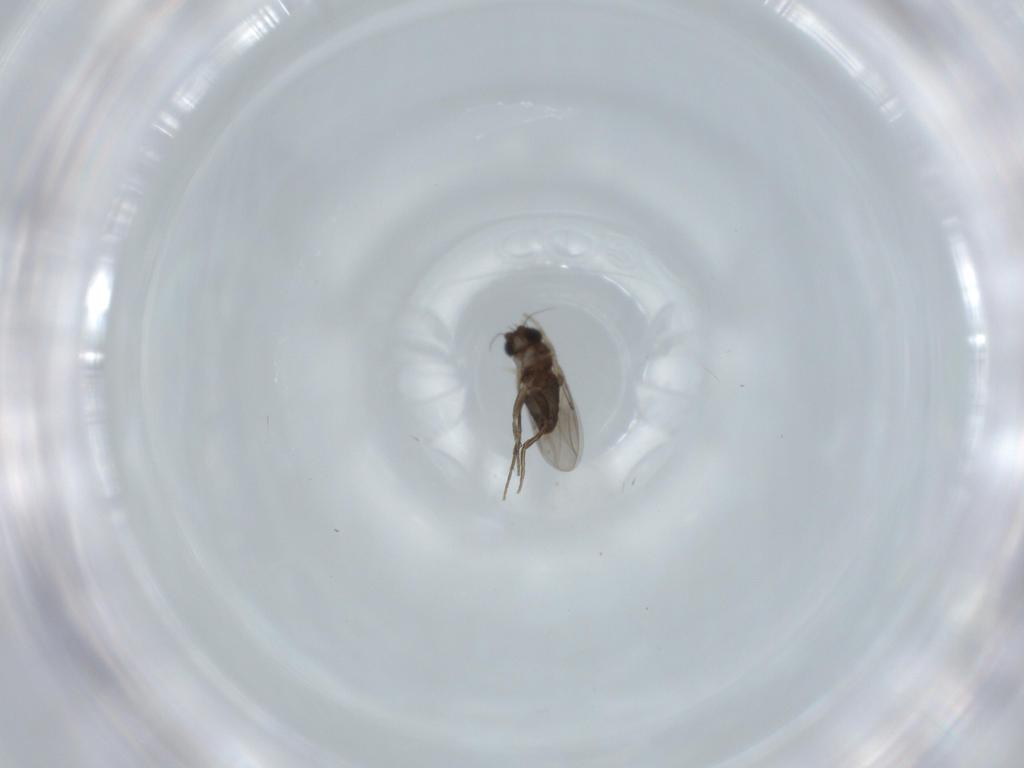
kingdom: Animalia
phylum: Arthropoda
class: Insecta
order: Diptera
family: Phoridae
